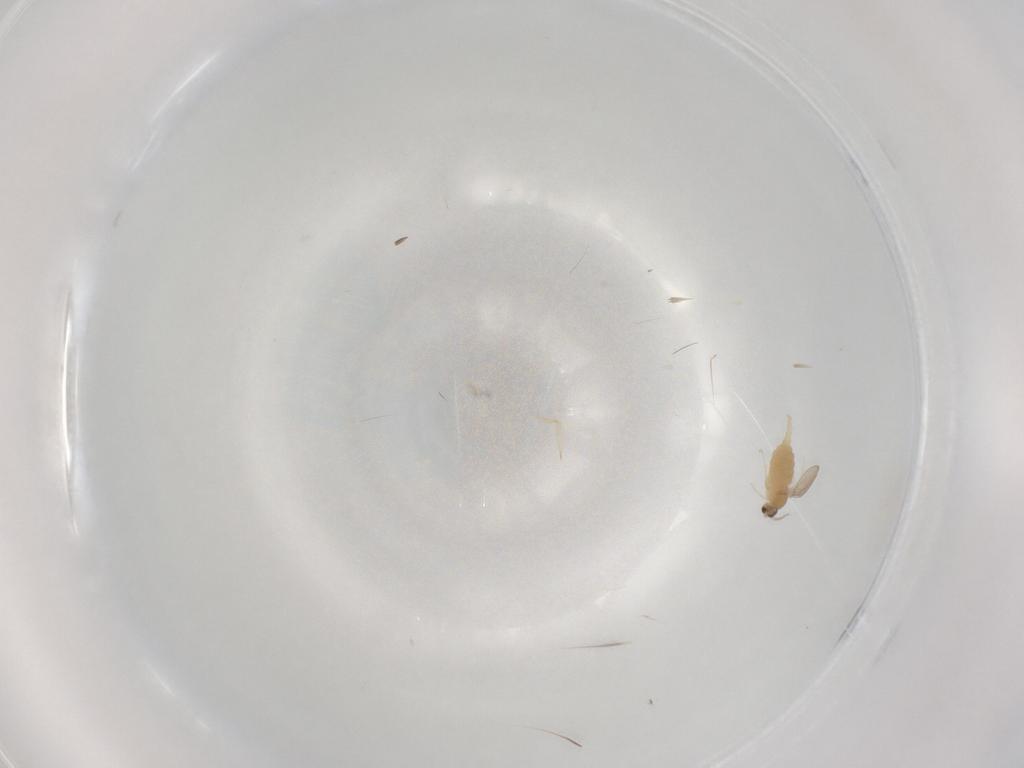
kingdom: Animalia
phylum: Arthropoda
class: Insecta
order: Diptera
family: Cecidomyiidae
